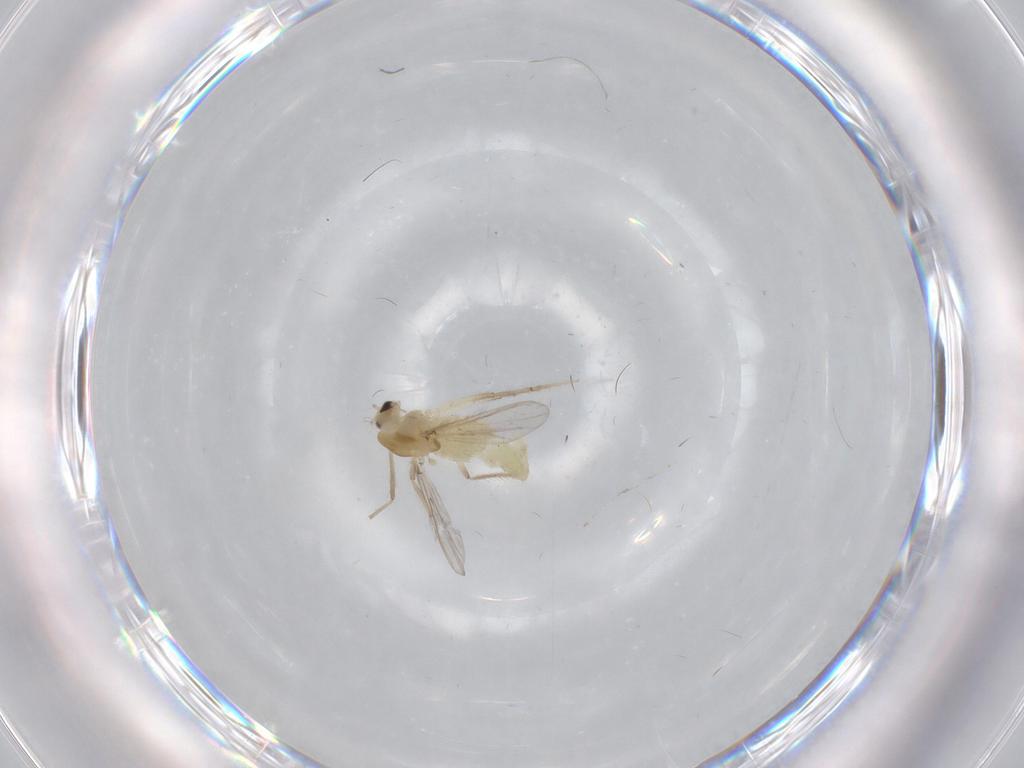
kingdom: Animalia
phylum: Arthropoda
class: Insecta
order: Diptera
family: Chironomidae
